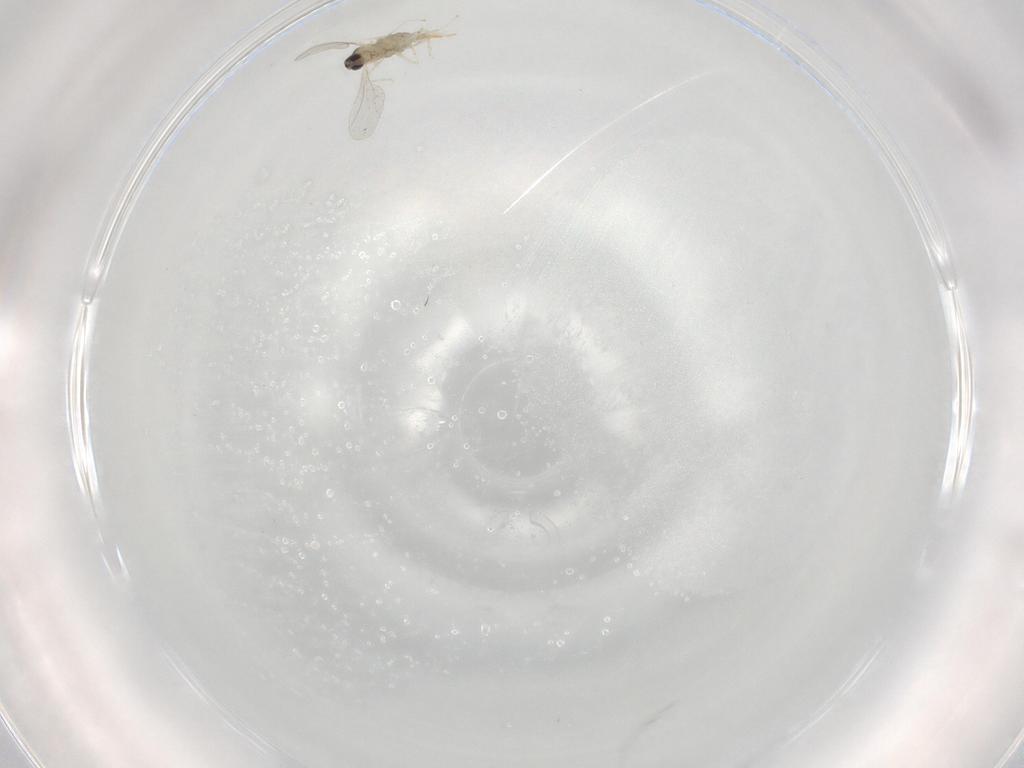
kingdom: Animalia
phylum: Arthropoda
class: Insecta
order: Diptera
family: Cecidomyiidae
